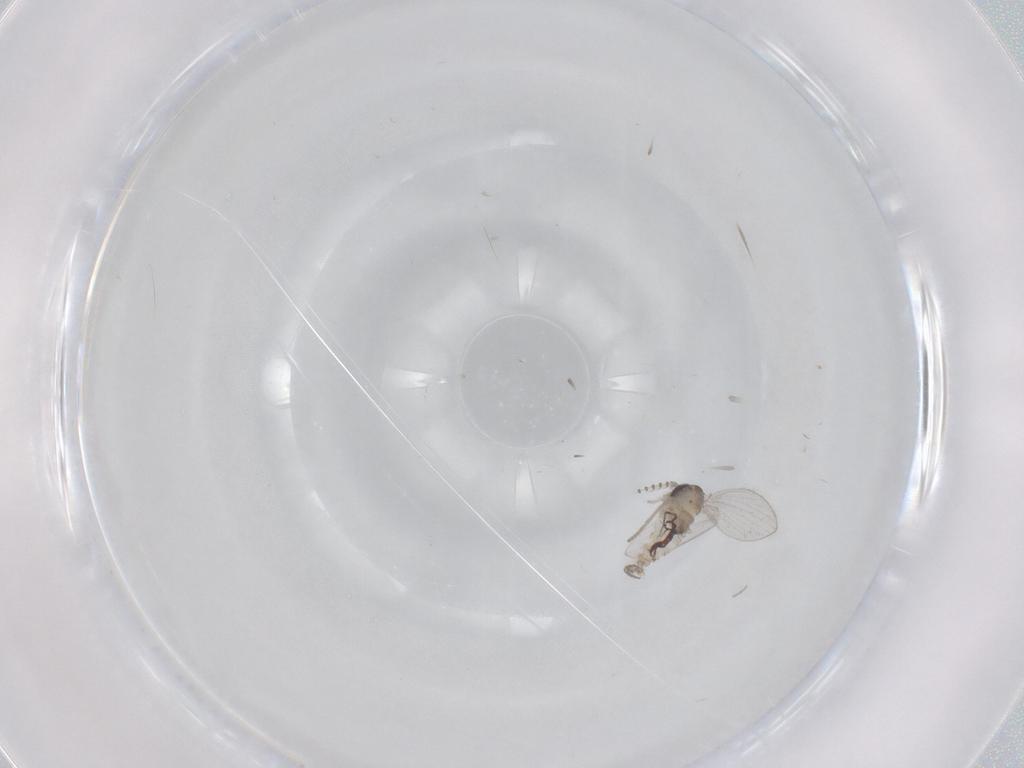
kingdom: Animalia
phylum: Arthropoda
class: Insecta
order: Diptera
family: Psychodidae
